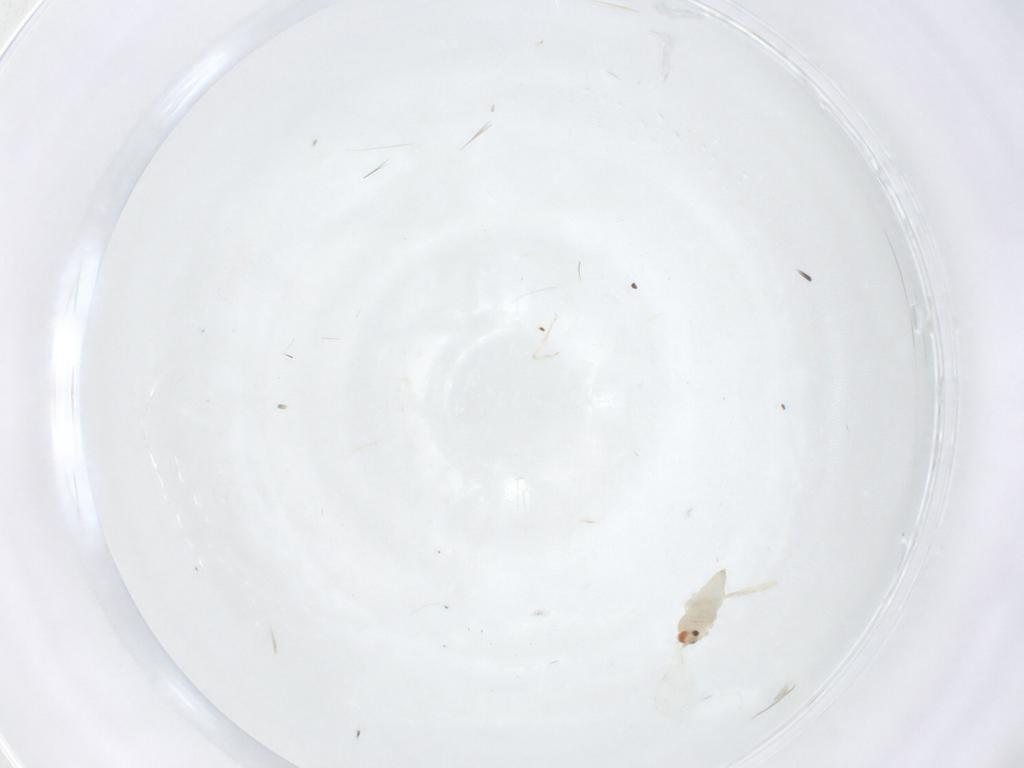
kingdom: Animalia
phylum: Arthropoda
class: Insecta
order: Diptera
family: Cecidomyiidae
